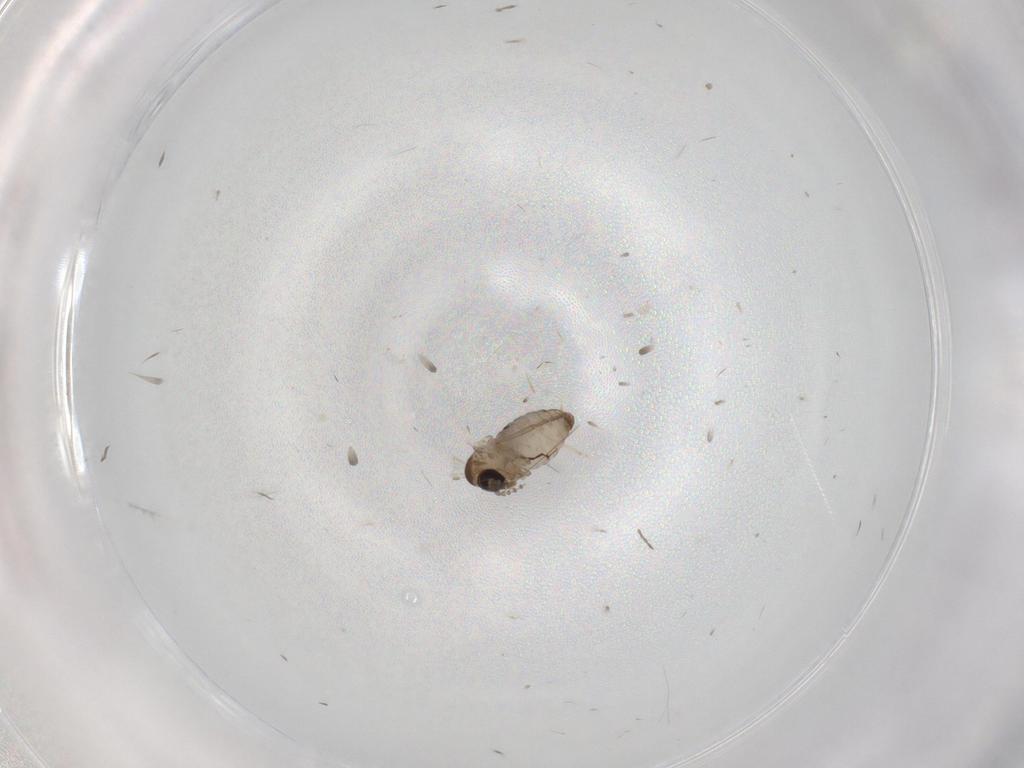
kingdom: Animalia
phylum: Arthropoda
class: Insecta
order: Diptera
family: Psychodidae
